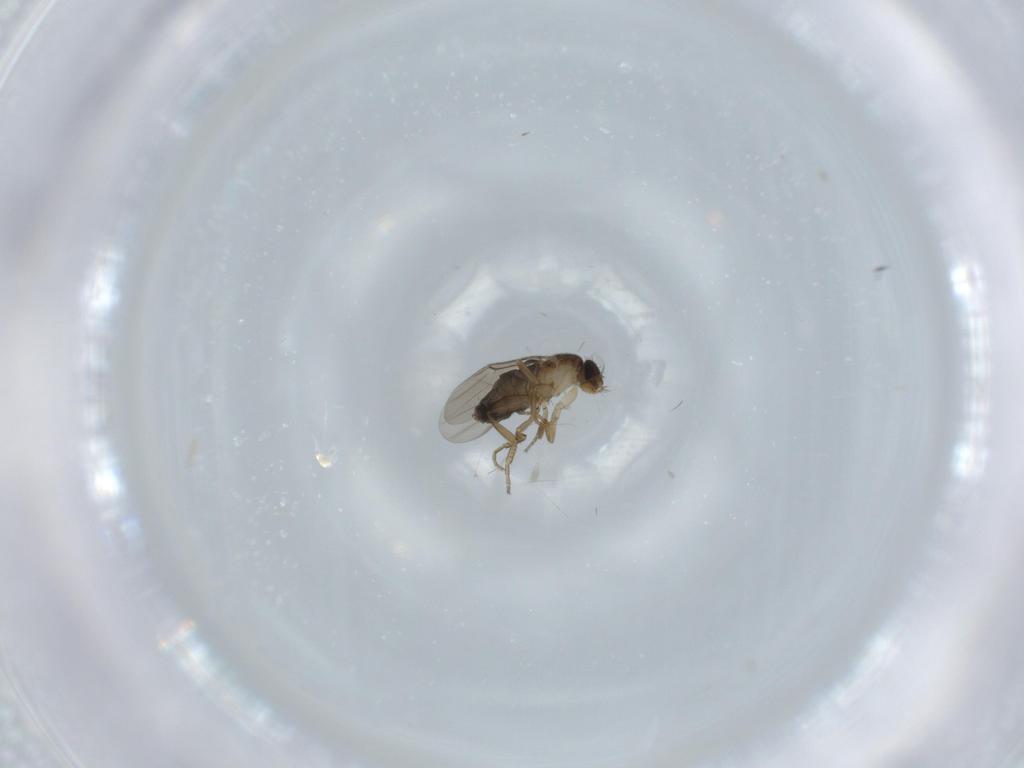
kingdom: Animalia
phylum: Arthropoda
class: Insecta
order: Diptera
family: Phoridae
